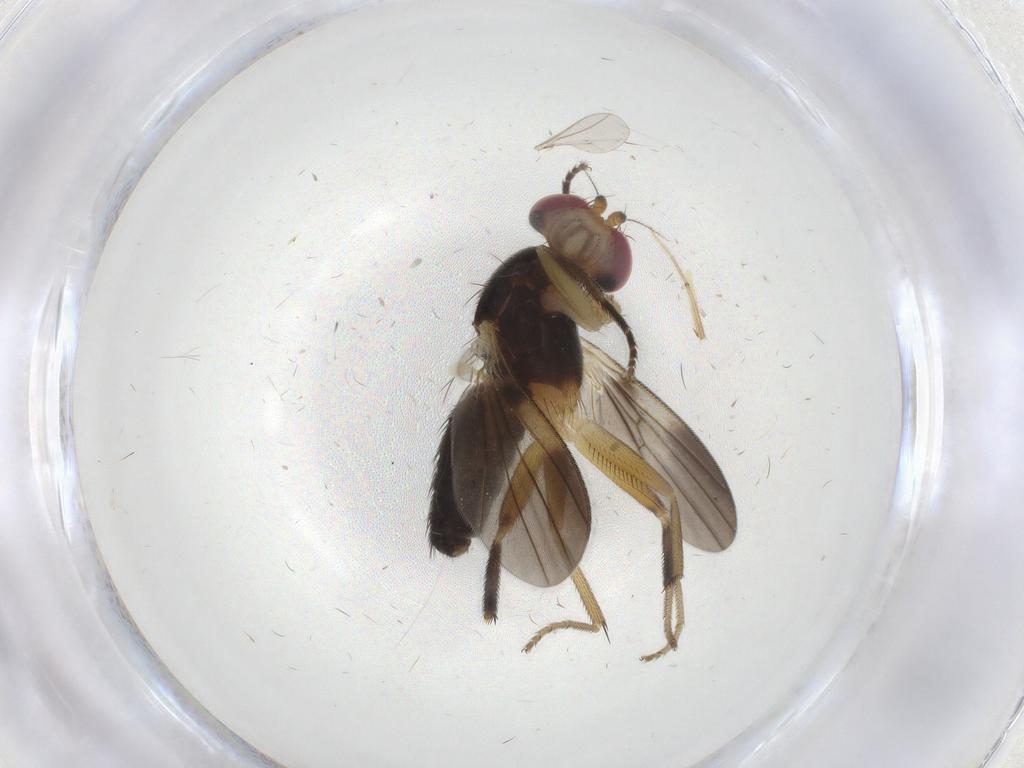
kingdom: Animalia
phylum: Arthropoda
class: Insecta
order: Diptera
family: Clusiidae
